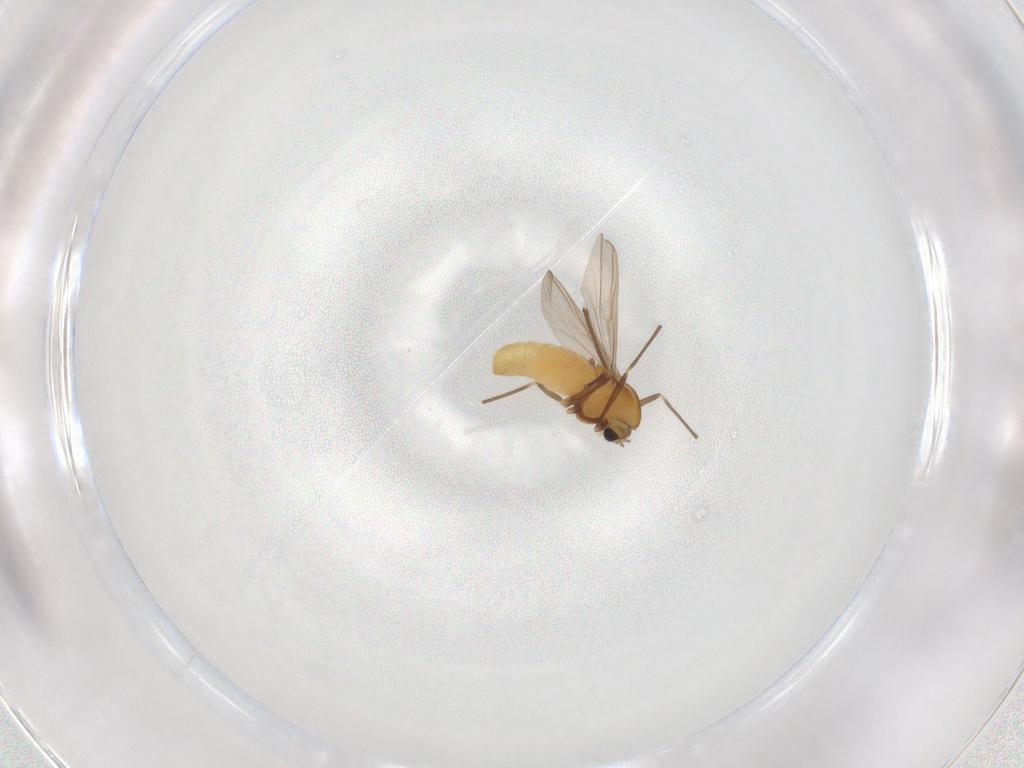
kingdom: Animalia
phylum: Arthropoda
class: Insecta
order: Diptera
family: Chironomidae
